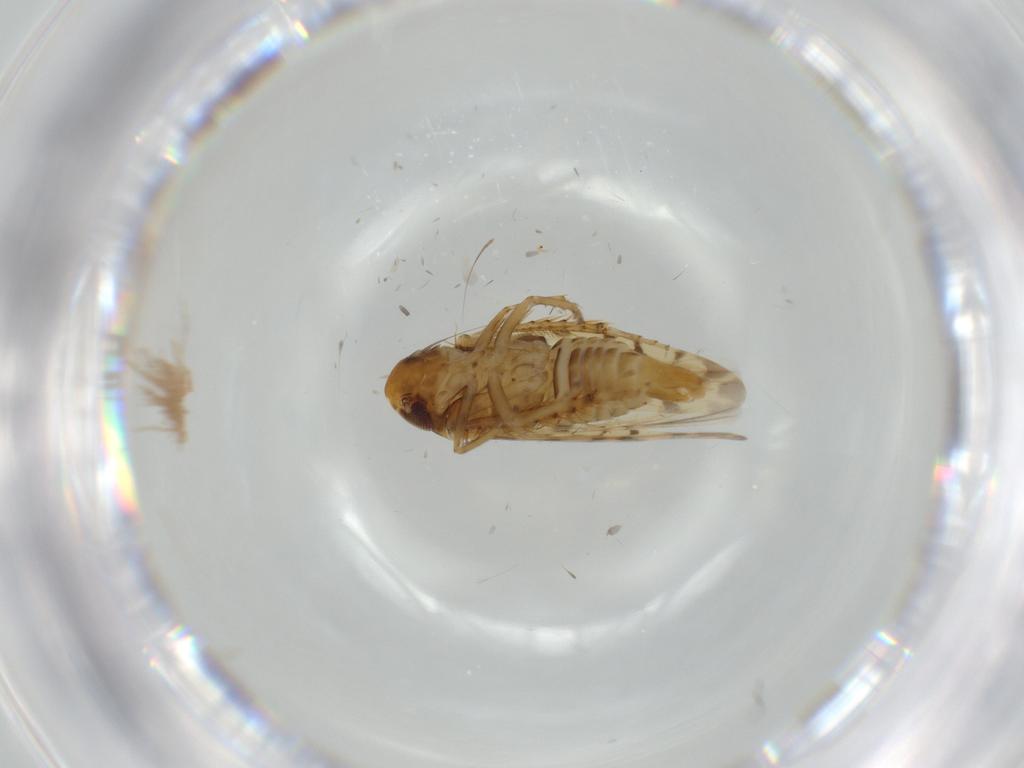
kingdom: Animalia
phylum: Arthropoda
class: Insecta
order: Hemiptera
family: Cicadellidae
